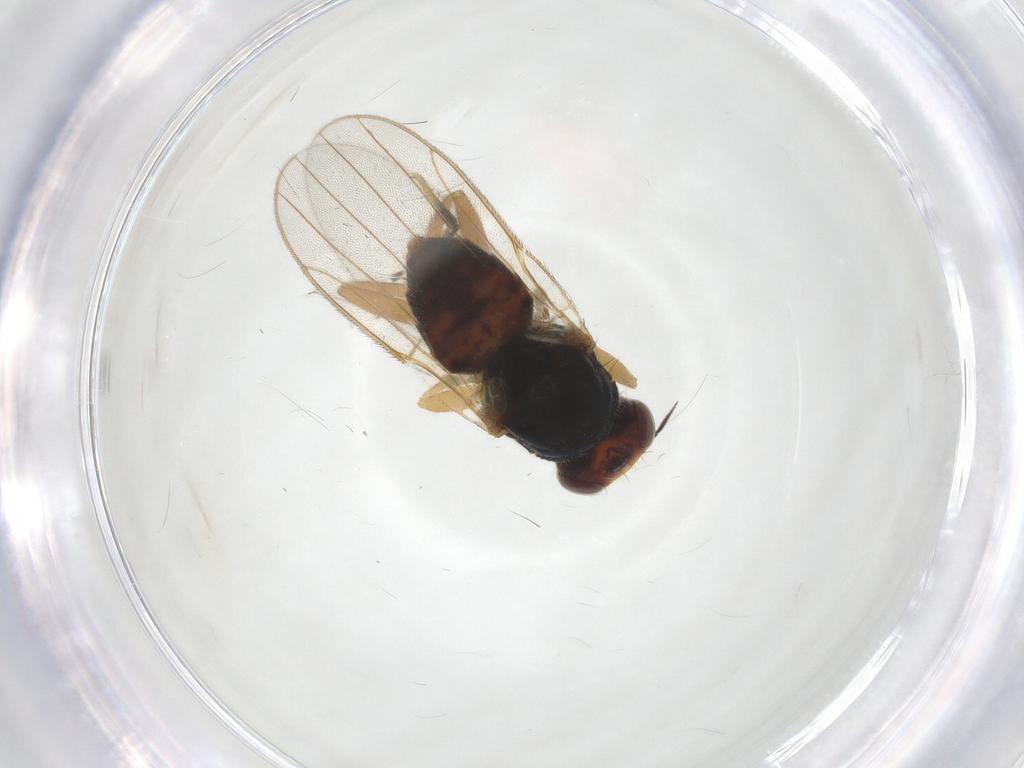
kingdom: Animalia
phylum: Arthropoda
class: Insecta
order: Diptera
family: Chloropidae
